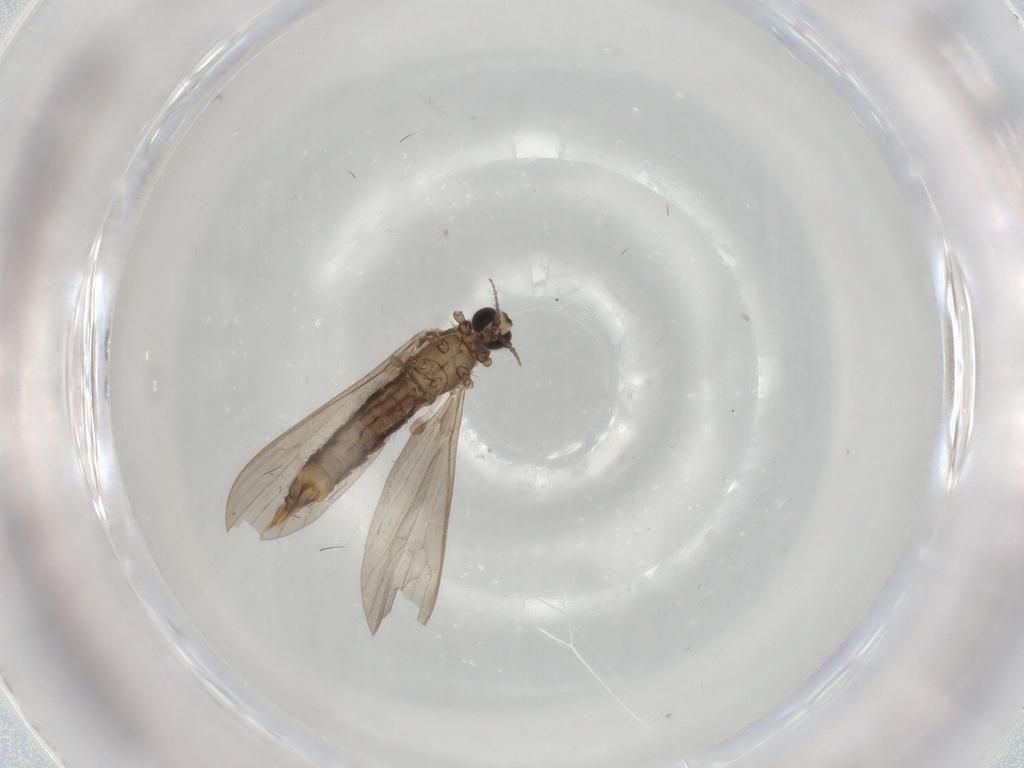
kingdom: Animalia
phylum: Arthropoda
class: Insecta
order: Diptera
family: Limoniidae
